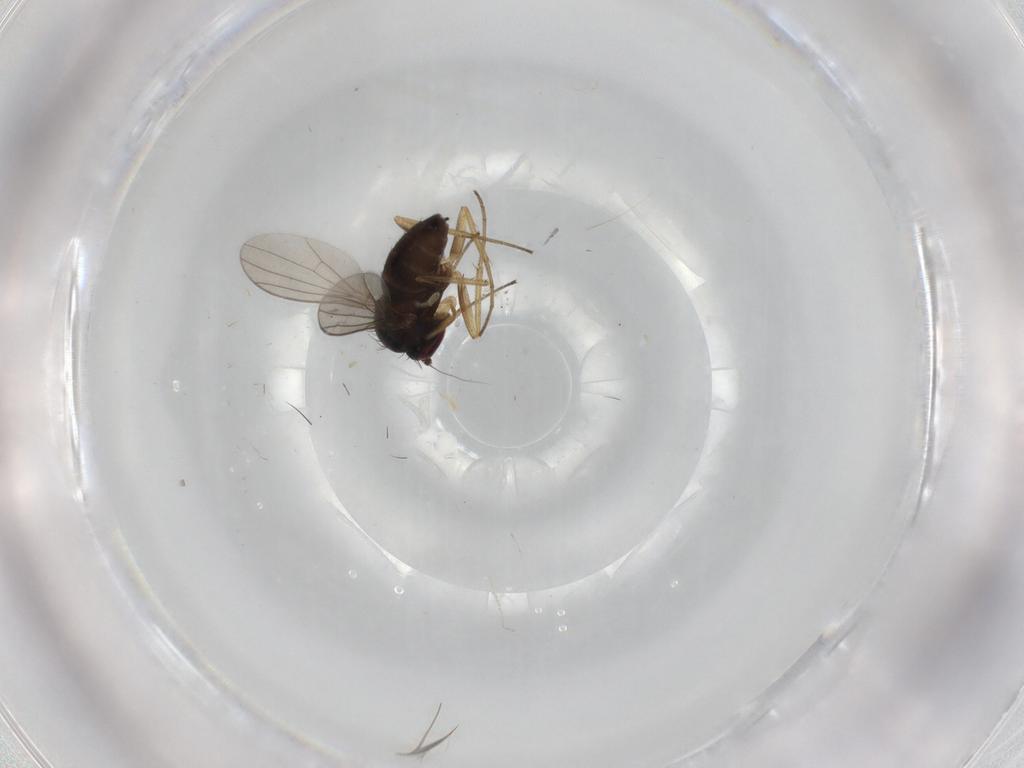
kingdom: Animalia
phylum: Arthropoda
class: Insecta
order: Diptera
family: Dolichopodidae
